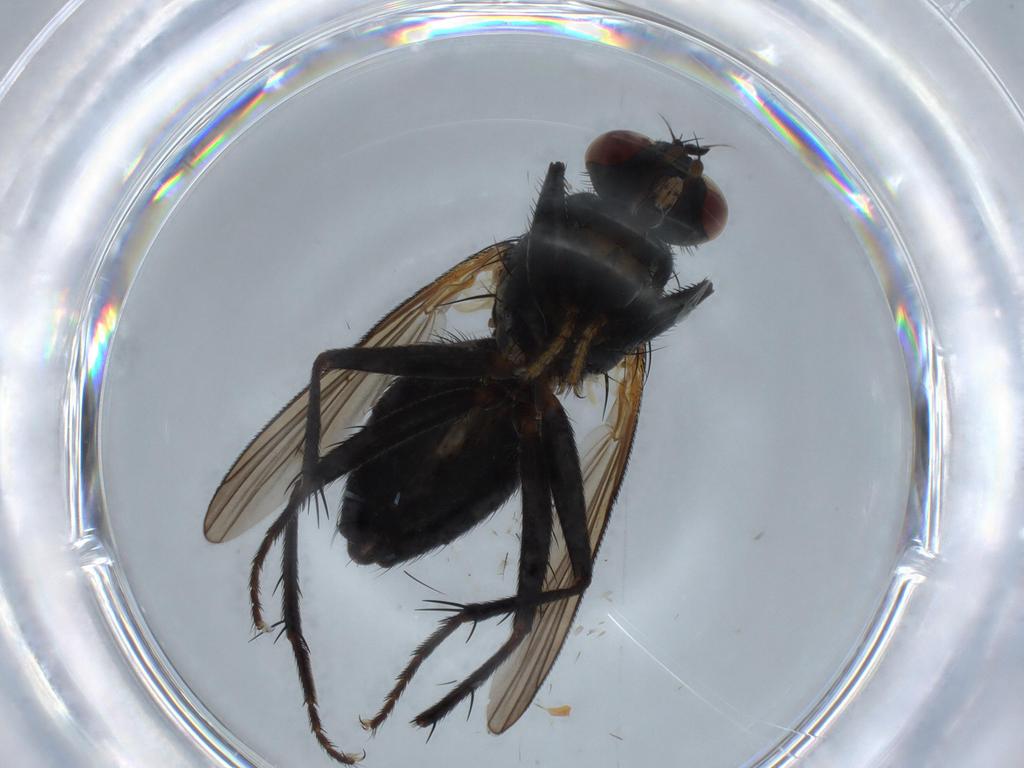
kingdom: Animalia
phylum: Arthropoda
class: Insecta
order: Diptera
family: Muscidae
